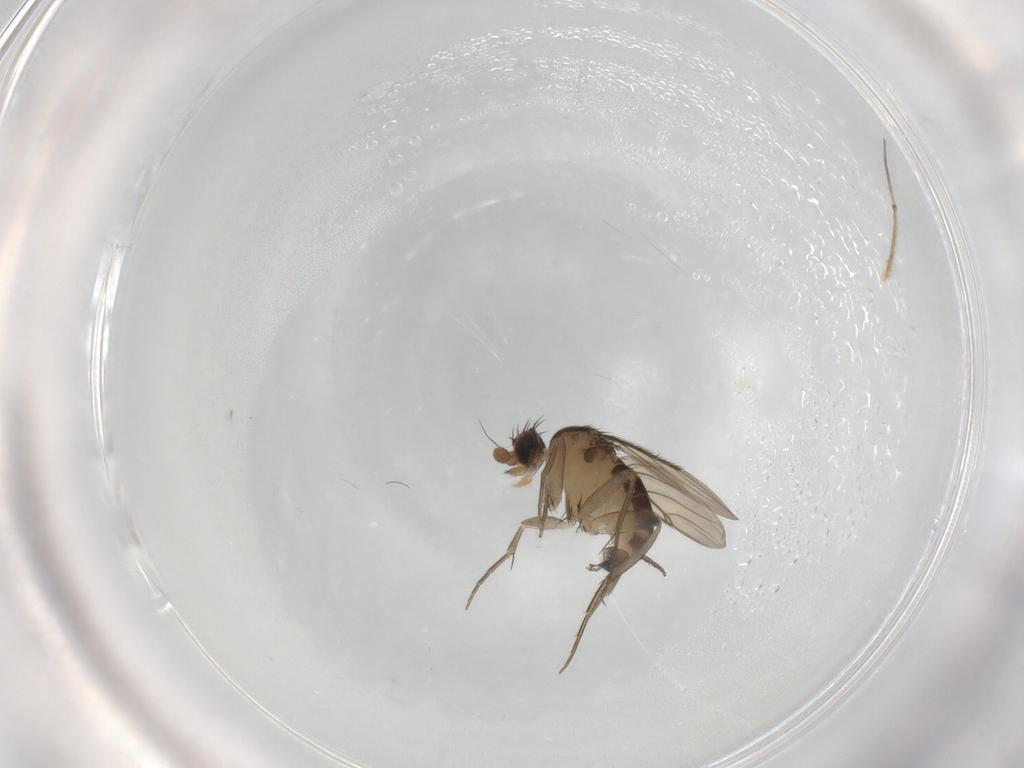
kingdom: Animalia
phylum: Arthropoda
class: Insecta
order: Diptera
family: Phoridae
